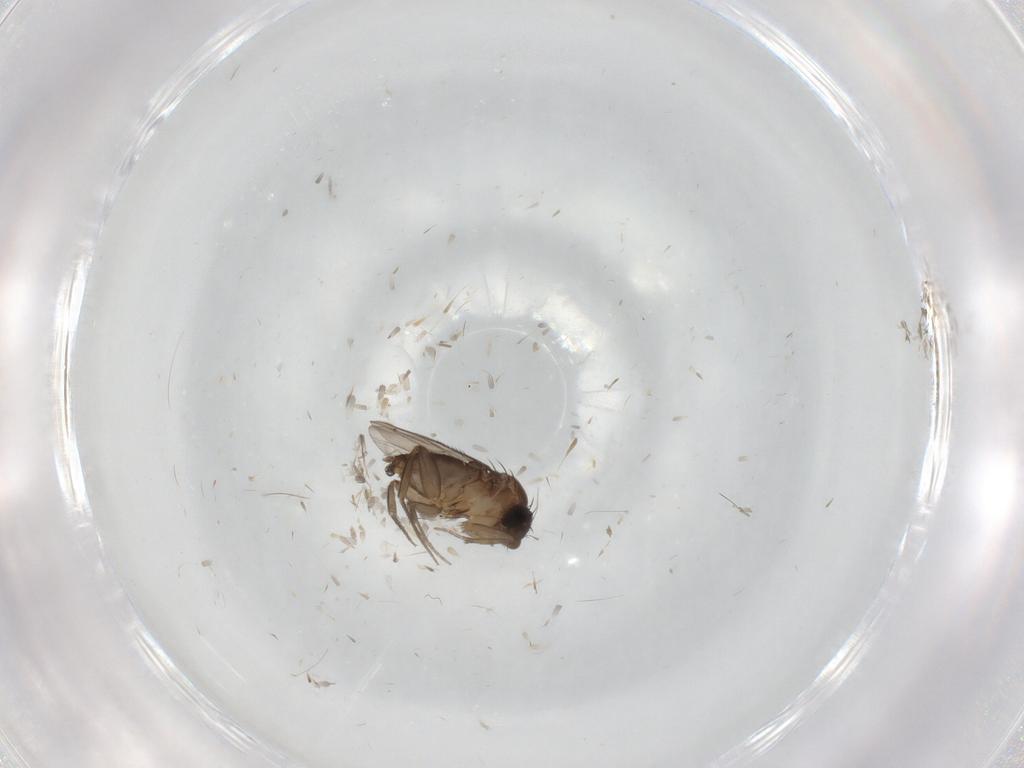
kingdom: Animalia
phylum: Arthropoda
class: Insecta
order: Diptera
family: Phoridae
